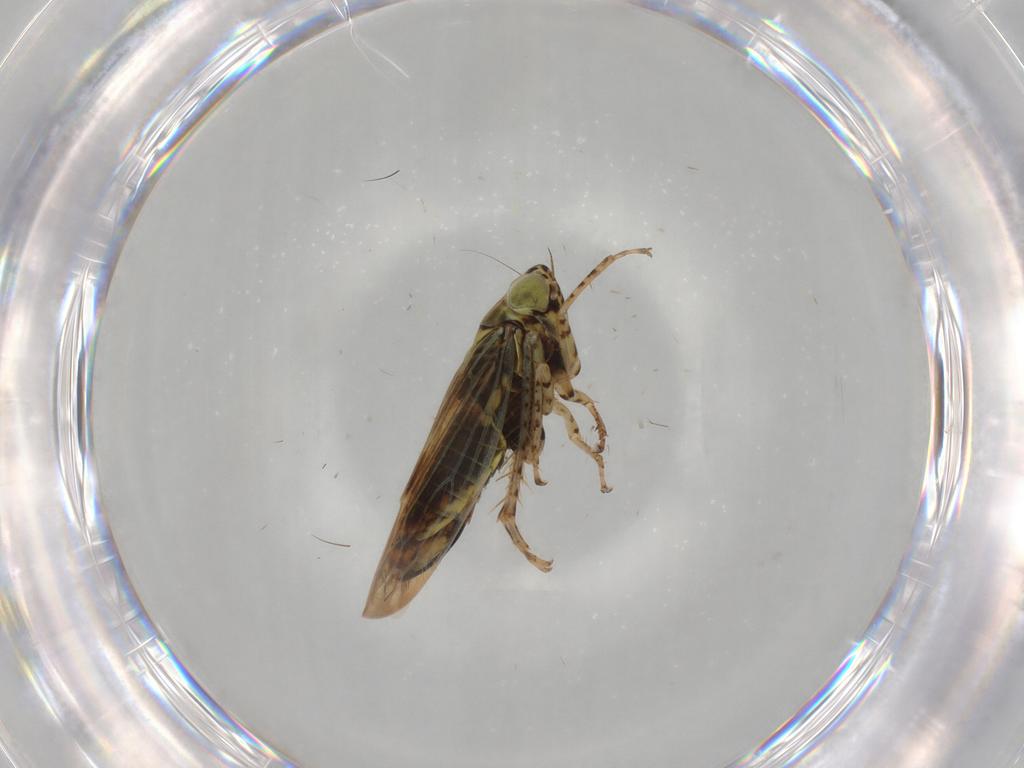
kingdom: Animalia
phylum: Arthropoda
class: Insecta
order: Hemiptera
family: Cicadellidae
